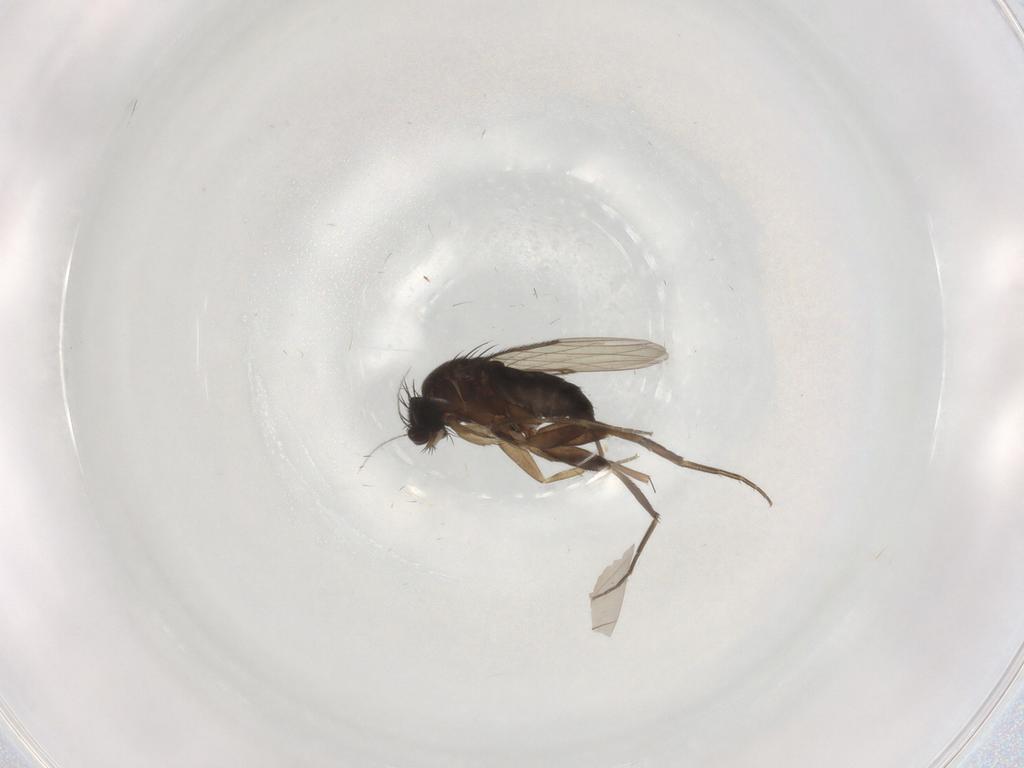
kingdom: Animalia
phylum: Arthropoda
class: Insecta
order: Diptera
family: Phoridae
